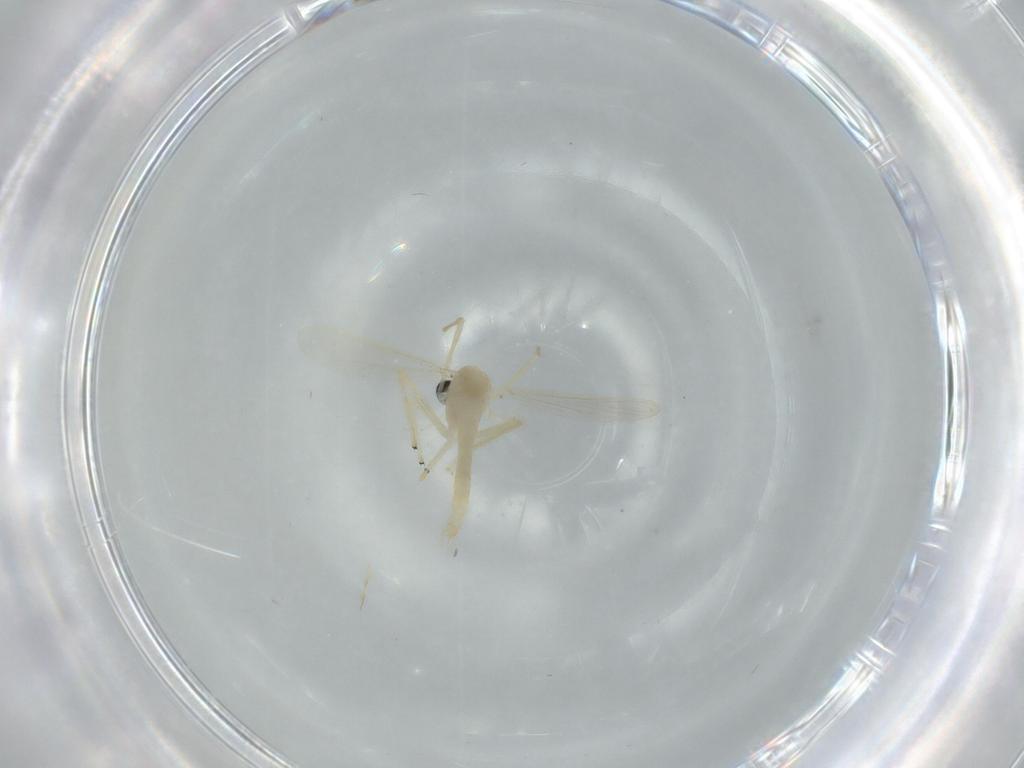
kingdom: Animalia
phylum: Arthropoda
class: Insecta
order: Diptera
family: Chironomidae
